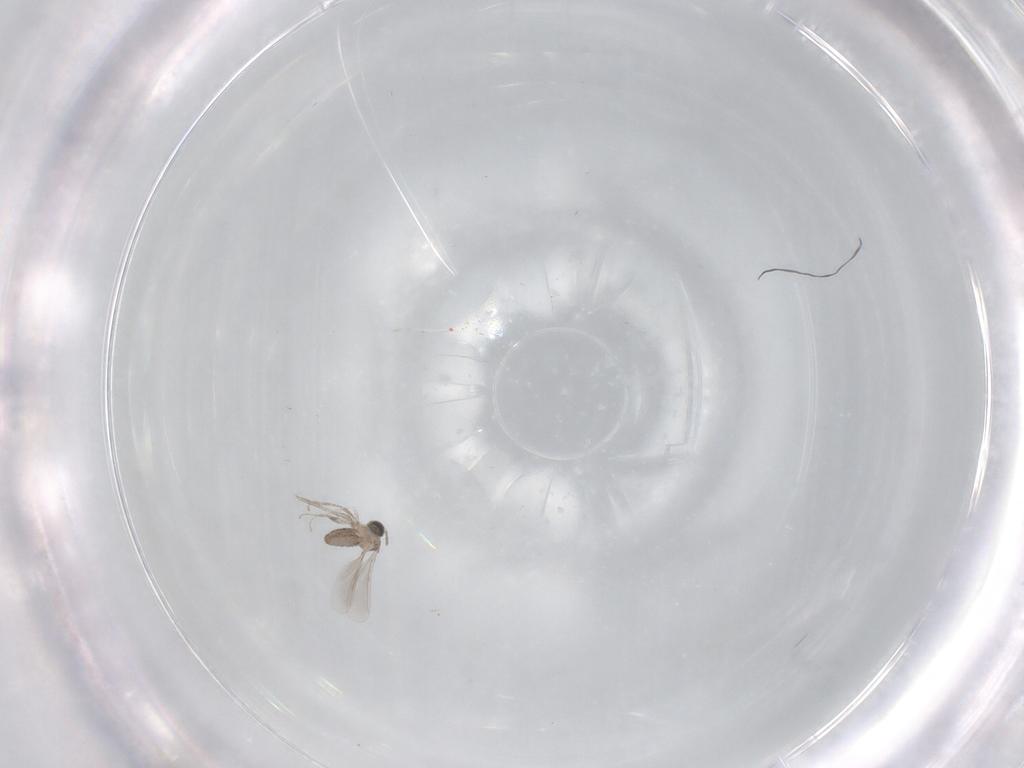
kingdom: Animalia
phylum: Arthropoda
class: Insecta
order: Diptera
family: Cecidomyiidae
